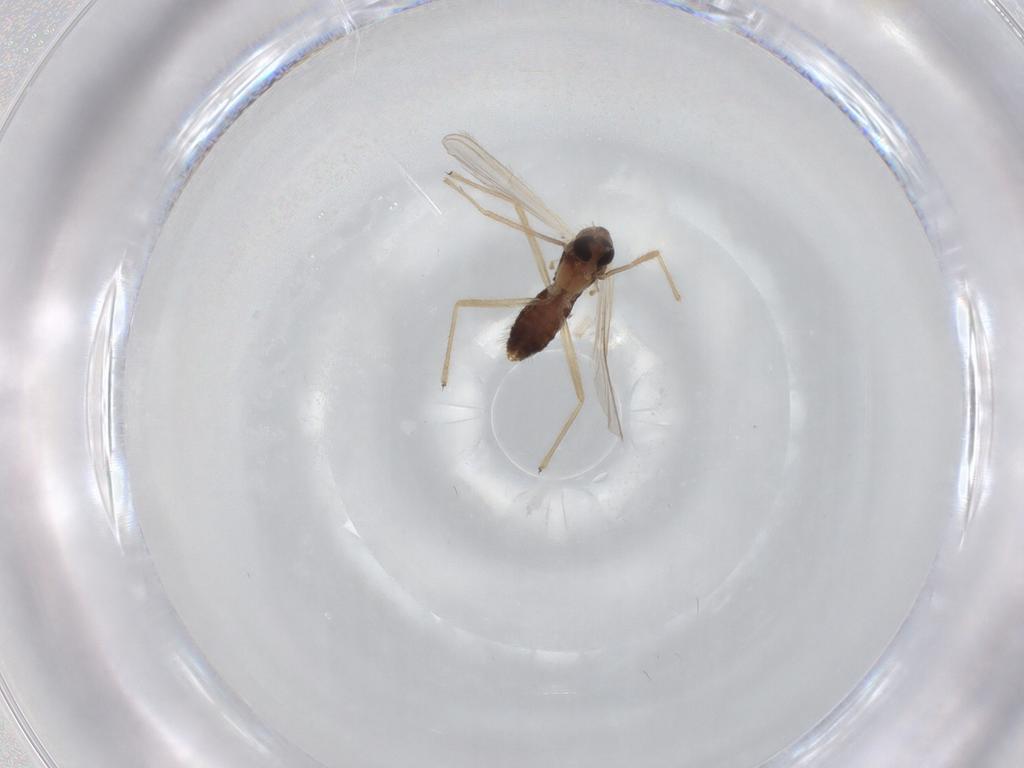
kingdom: Animalia
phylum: Arthropoda
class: Insecta
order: Diptera
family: Chironomidae
